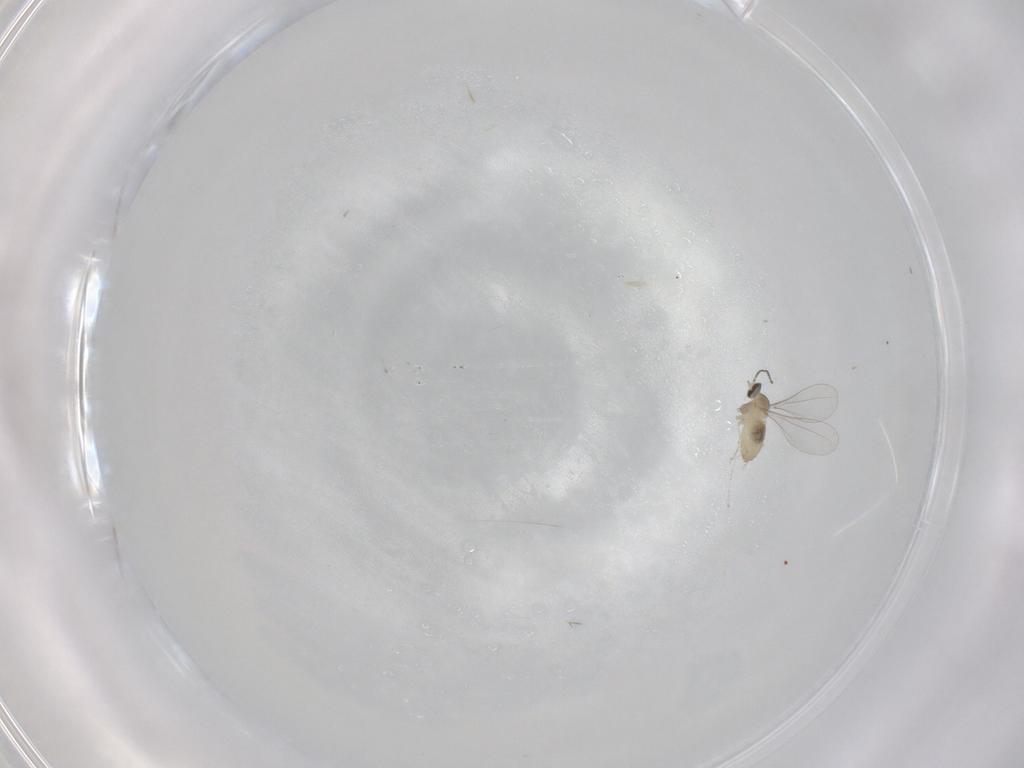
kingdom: Animalia
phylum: Arthropoda
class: Insecta
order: Diptera
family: Cecidomyiidae
